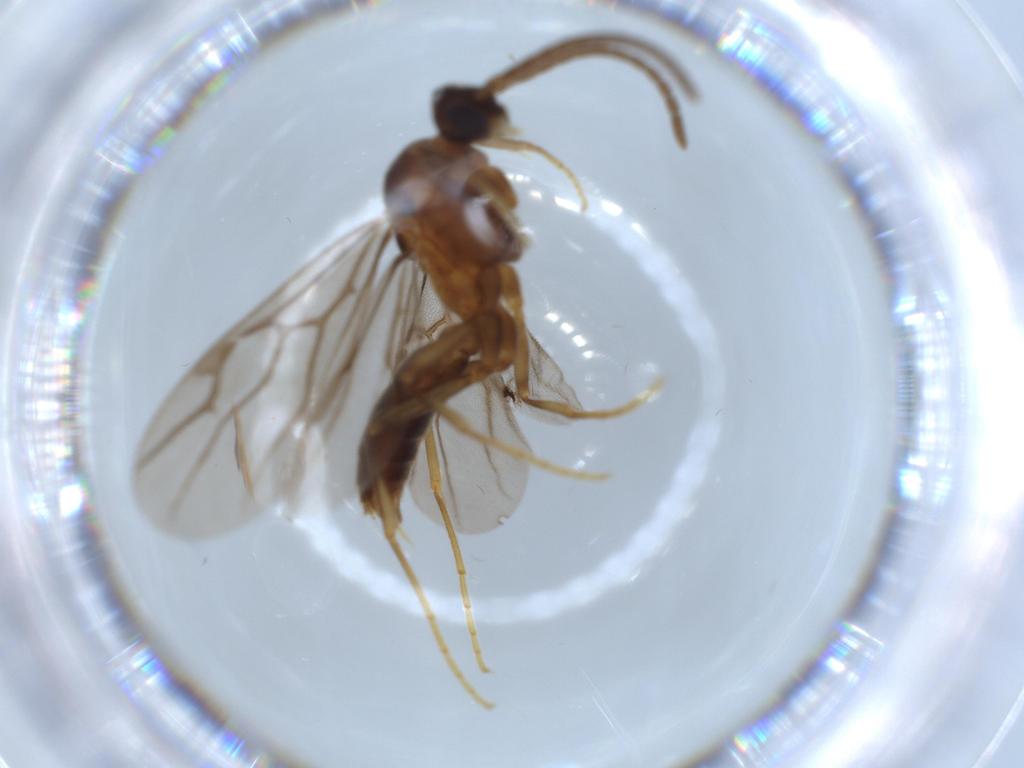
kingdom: Animalia
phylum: Arthropoda
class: Insecta
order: Hymenoptera
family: Formicidae
